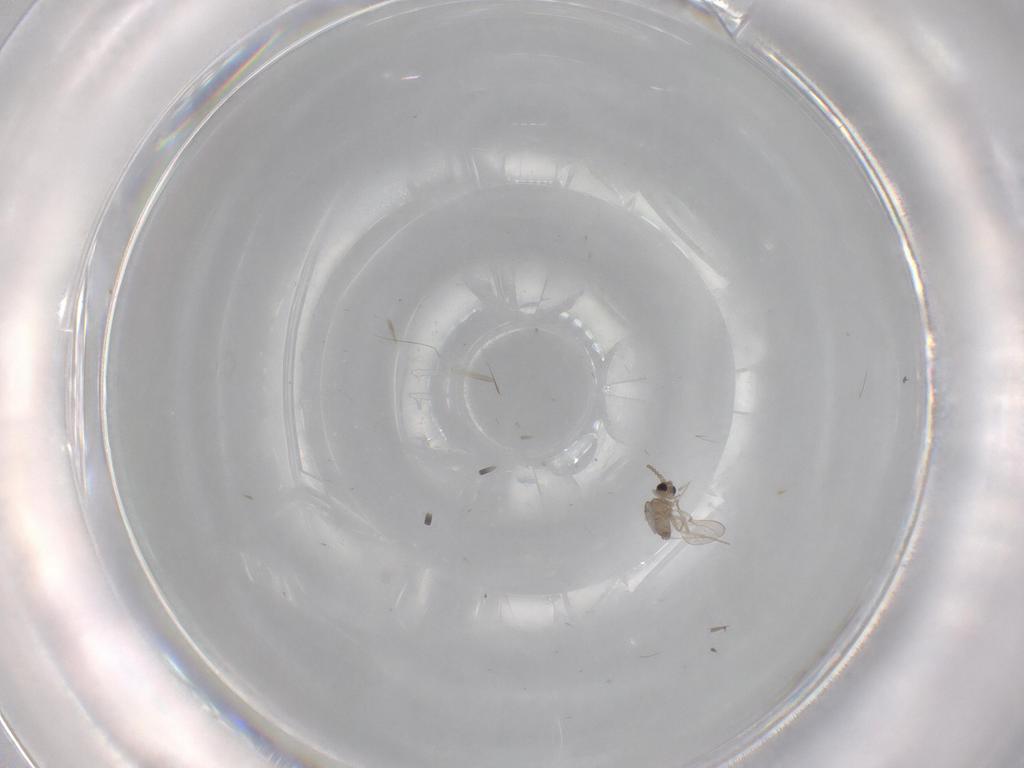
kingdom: Animalia
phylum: Arthropoda
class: Insecta
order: Diptera
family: Cecidomyiidae
